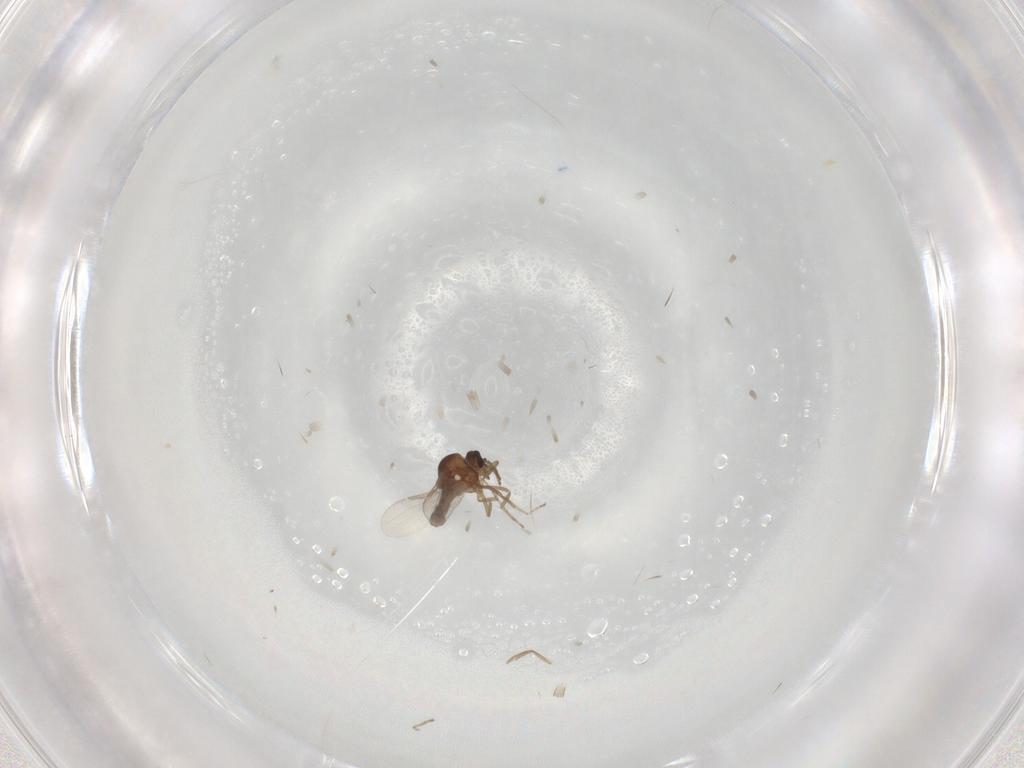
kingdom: Animalia
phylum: Arthropoda
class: Insecta
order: Diptera
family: Ceratopogonidae
